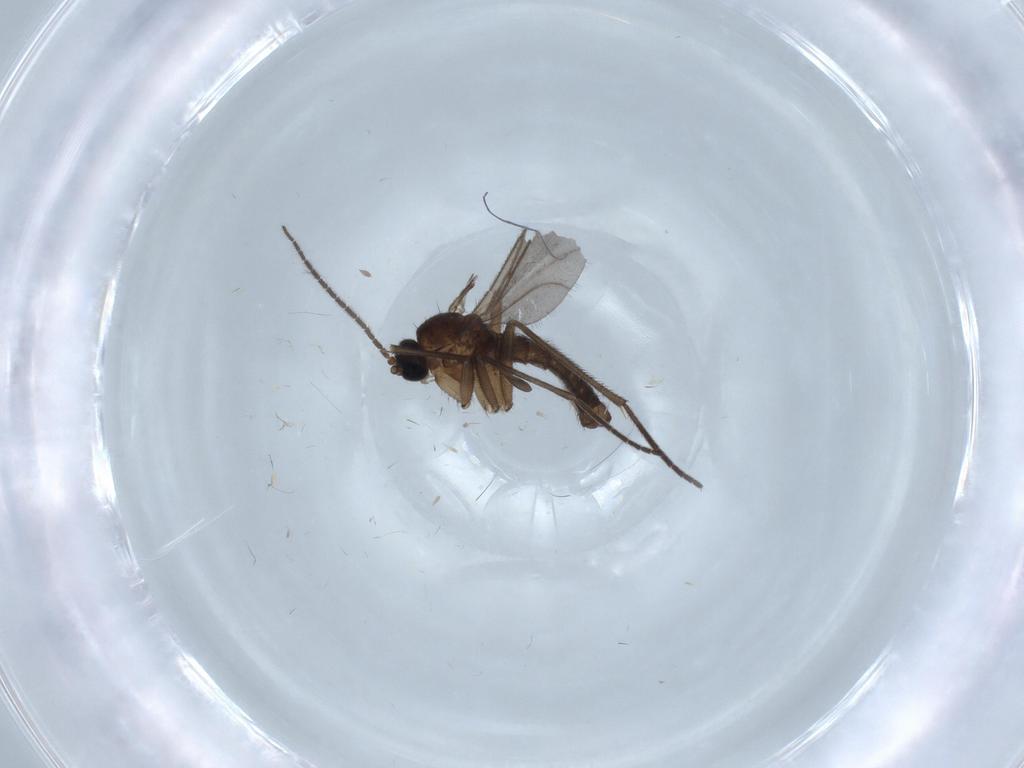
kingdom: Animalia
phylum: Arthropoda
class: Insecta
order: Diptera
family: Sciaridae
